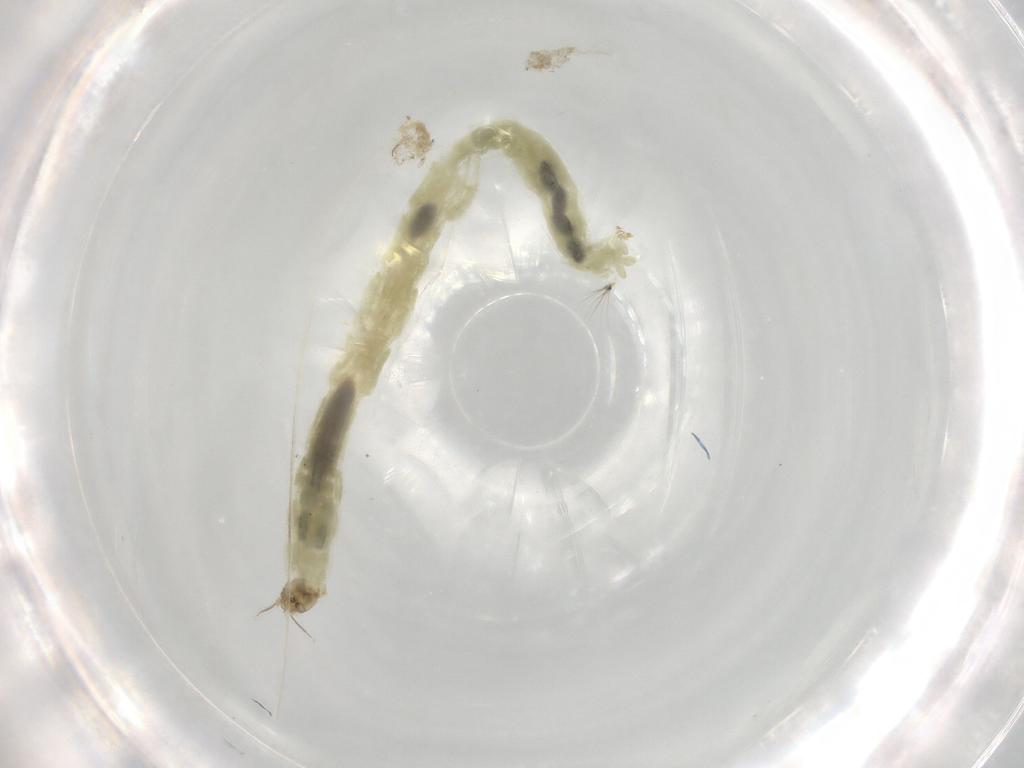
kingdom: Animalia
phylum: Arthropoda
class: Insecta
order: Diptera
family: Chironomidae
